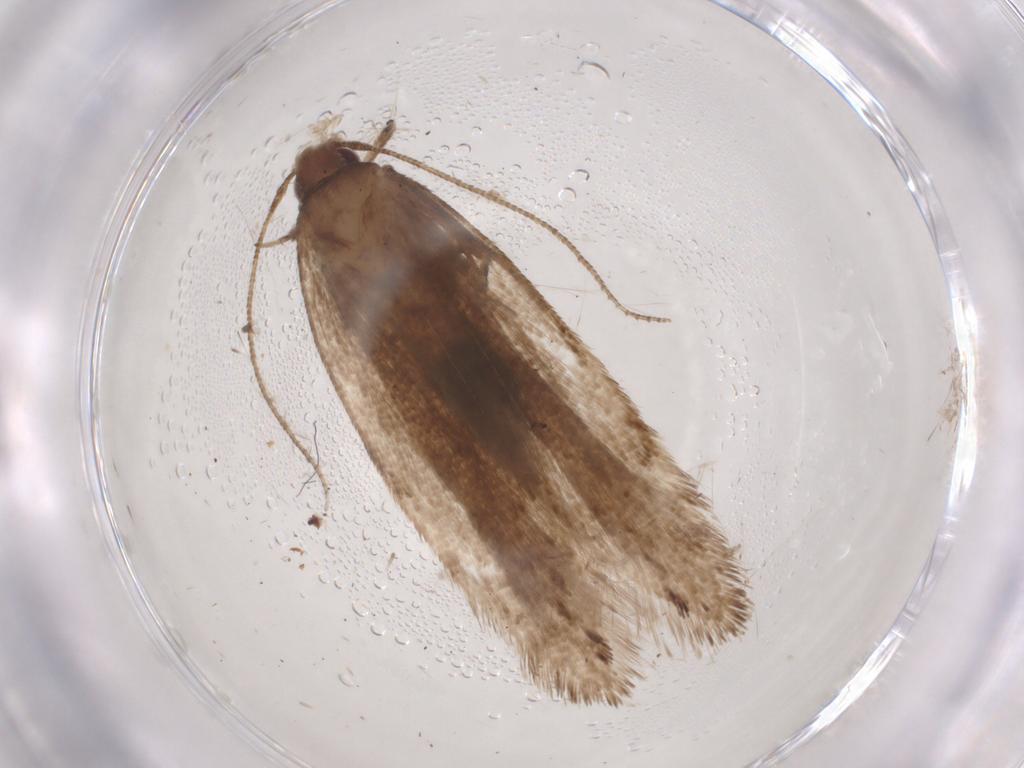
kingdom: Animalia
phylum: Arthropoda
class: Insecta
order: Lepidoptera
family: Gelechiidae
